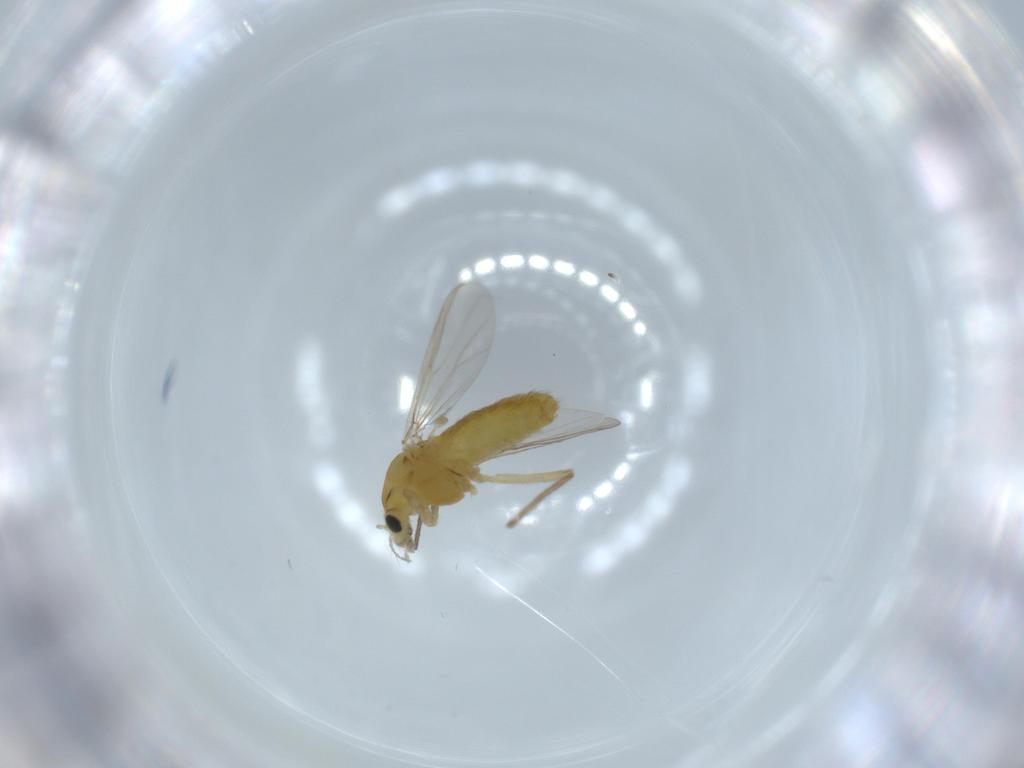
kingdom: Animalia
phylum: Arthropoda
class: Insecta
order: Diptera
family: Chironomidae
